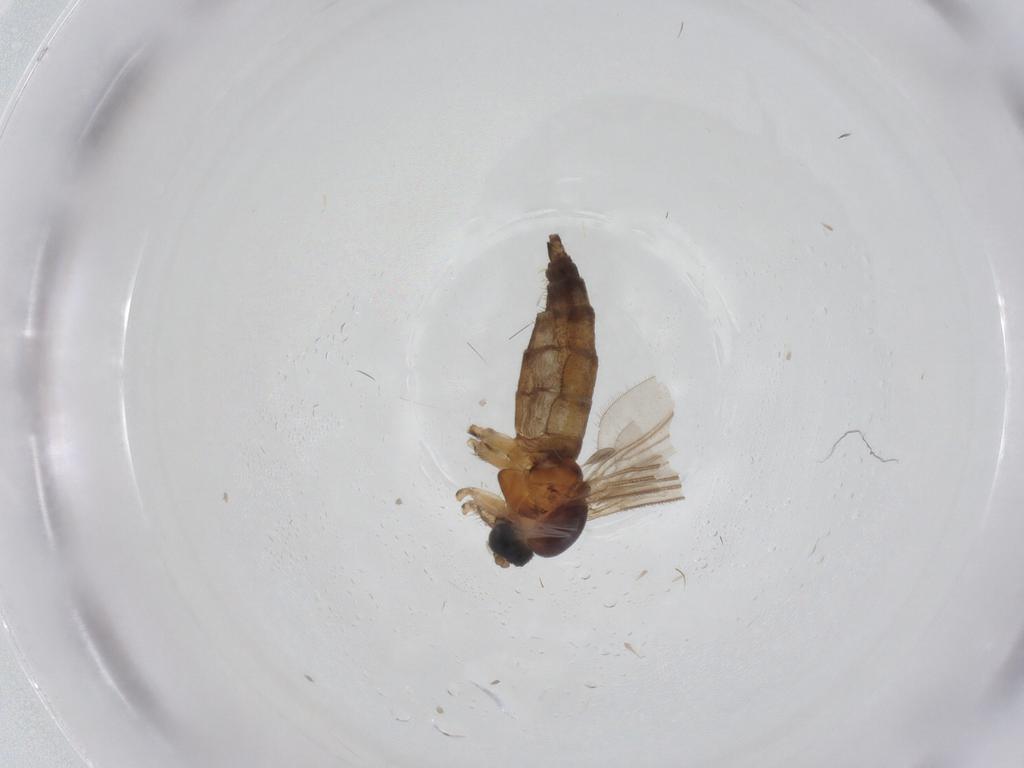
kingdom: Animalia
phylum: Arthropoda
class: Insecta
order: Diptera
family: Sciaridae
